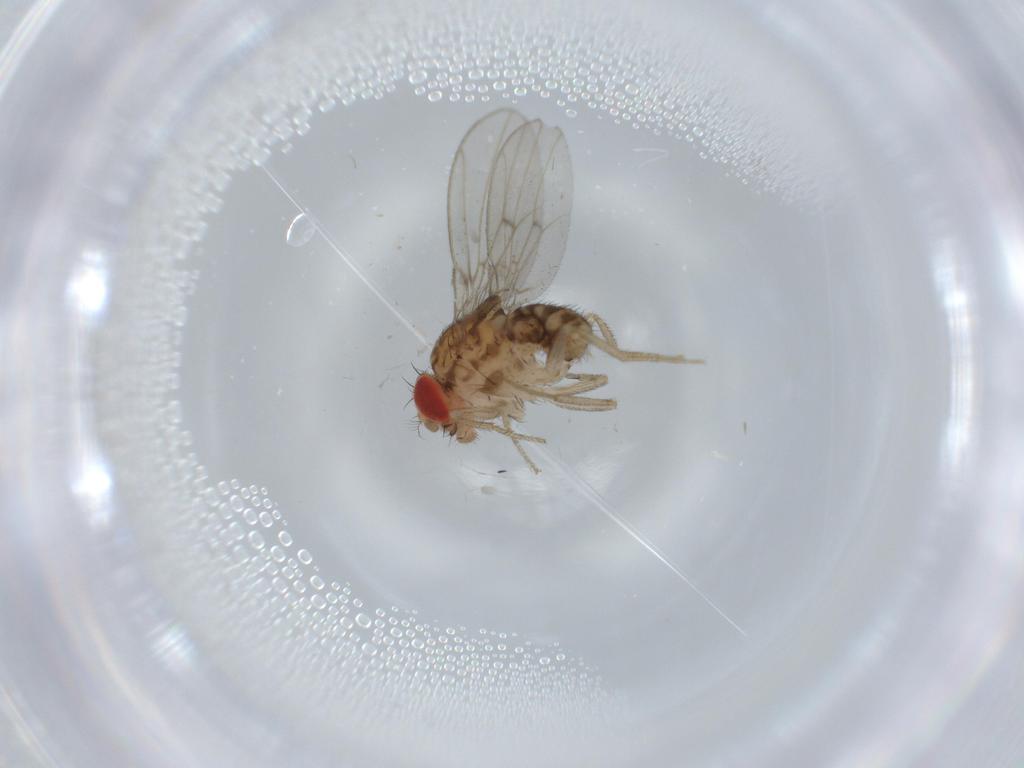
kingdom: Animalia
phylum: Arthropoda
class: Insecta
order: Diptera
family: Drosophilidae
